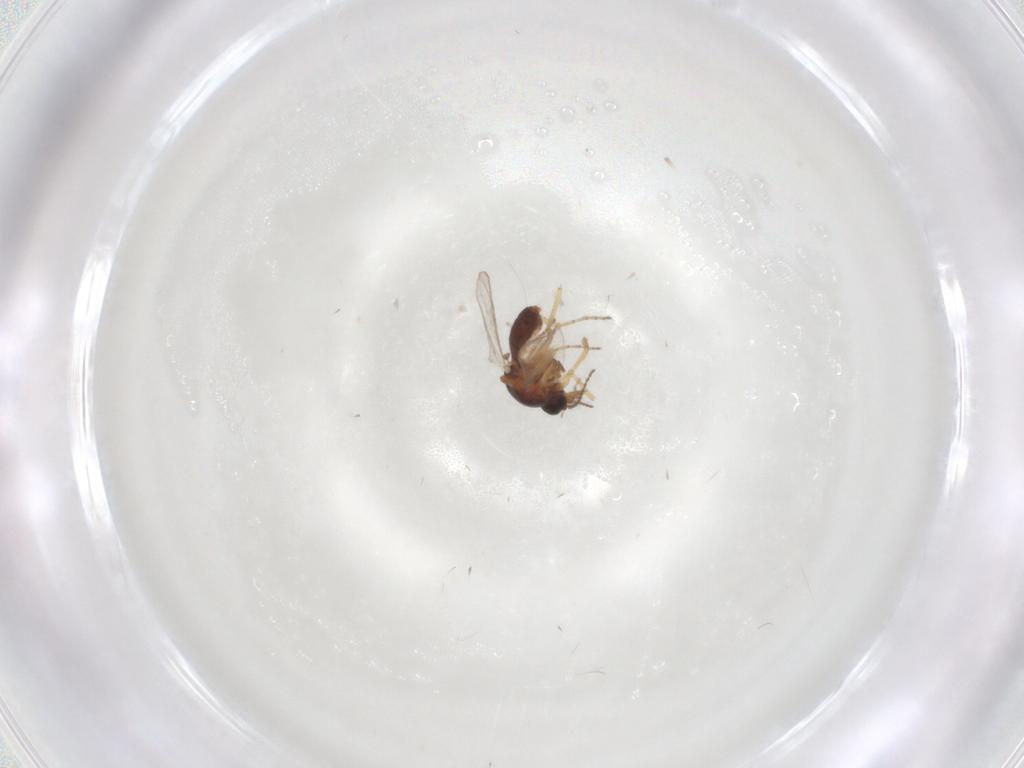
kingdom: Animalia
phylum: Arthropoda
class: Insecta
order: Diptera
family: Ceratopogonidae
